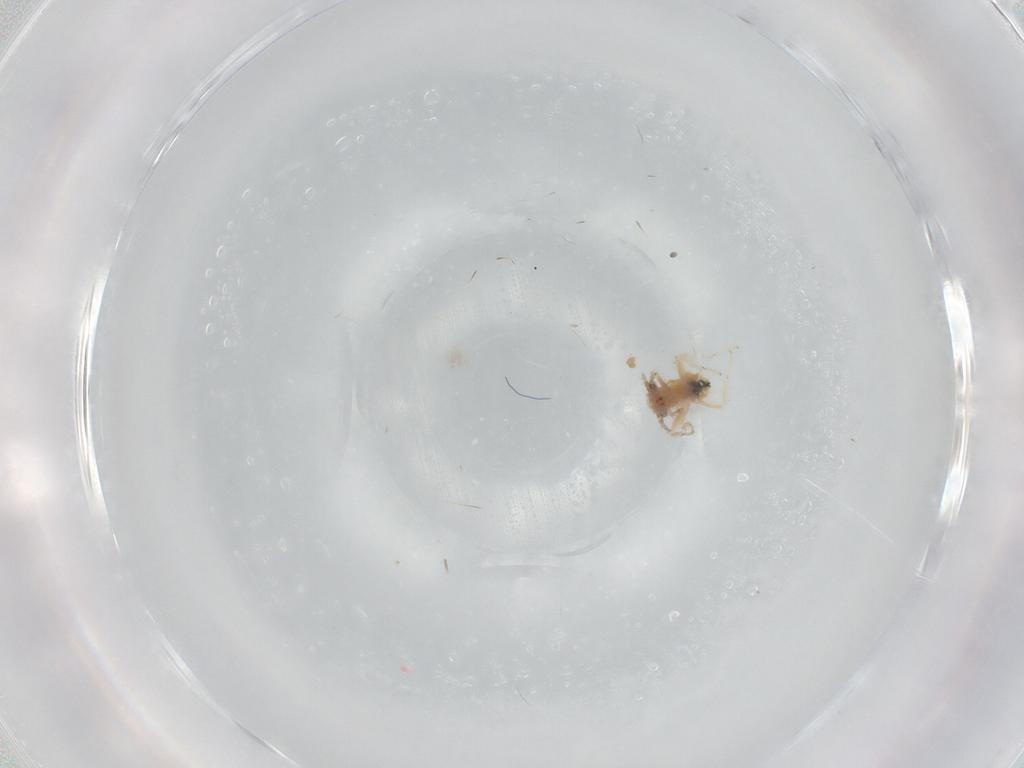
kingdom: Animalia
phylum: Arthropoda
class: Insecta
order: Psocodea
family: Lepidopsocidae
